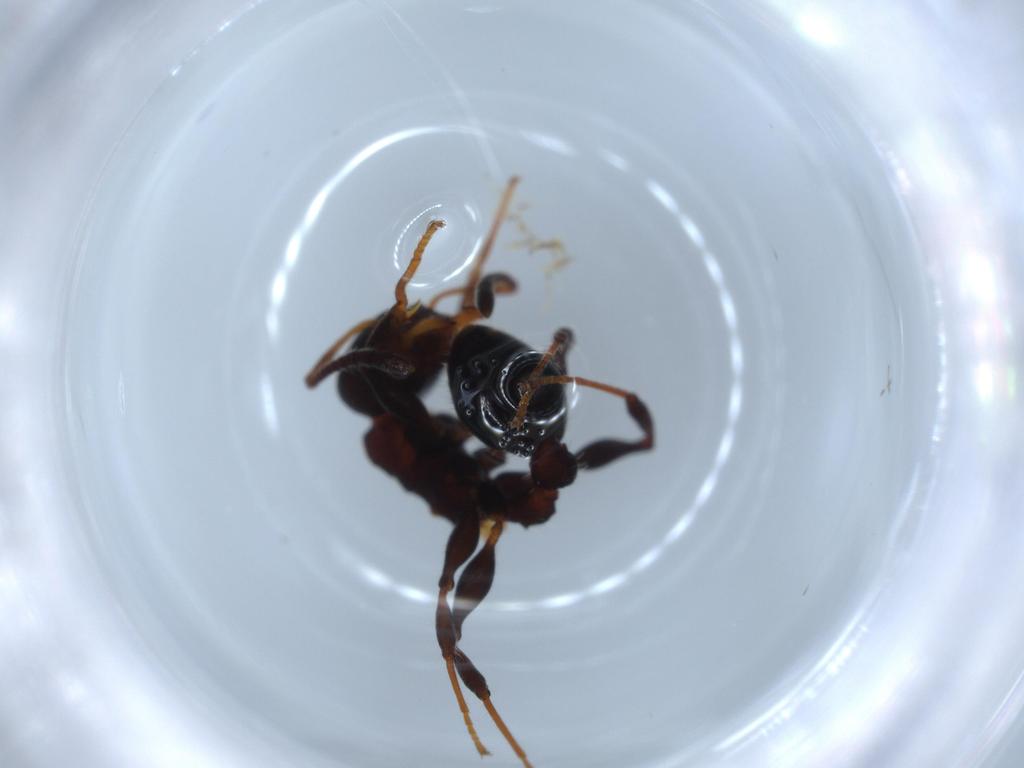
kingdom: Animalia
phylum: Arthropoda
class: Insecta
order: Hymenoptera
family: Formicidae
